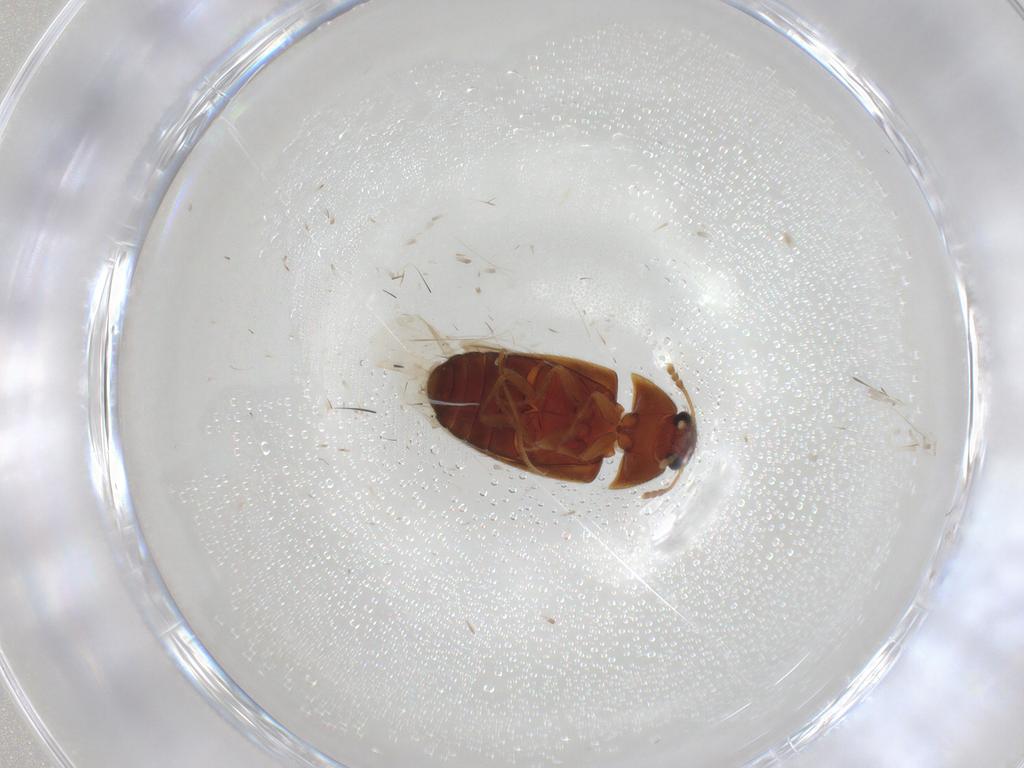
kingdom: Animalia
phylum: Arthropoda
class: Insecta
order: Coleoptera
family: Mycetophagidae
